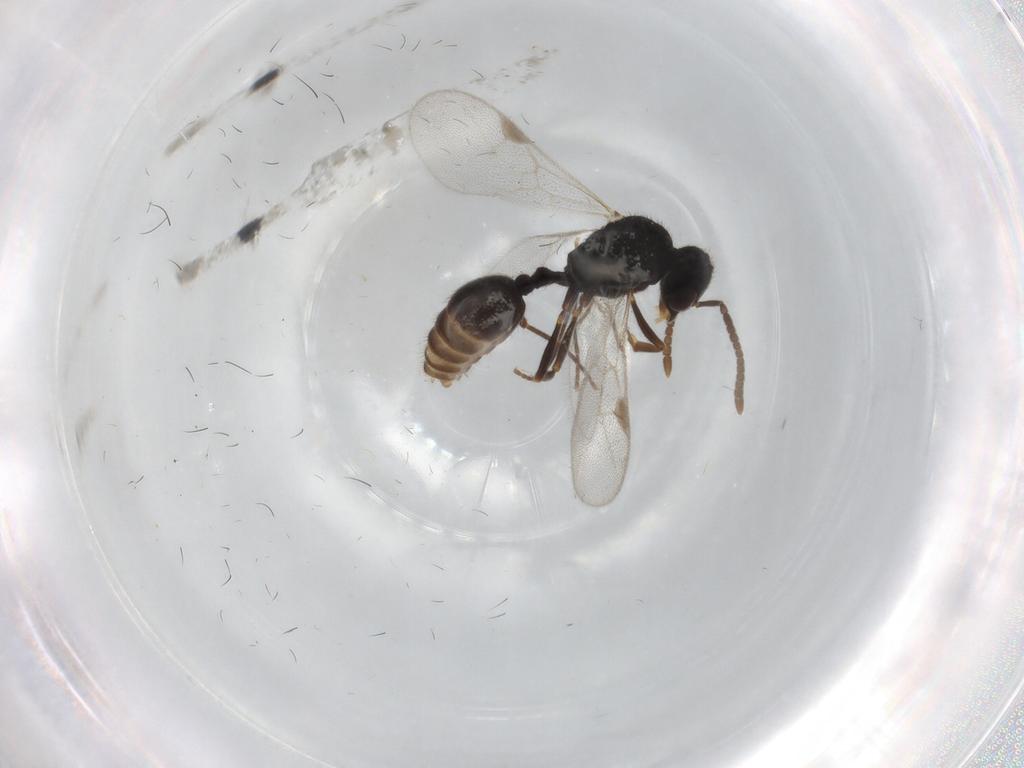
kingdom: Animalia
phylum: Arthropoda
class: Insecta
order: Hymenoptera
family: Formicidae
